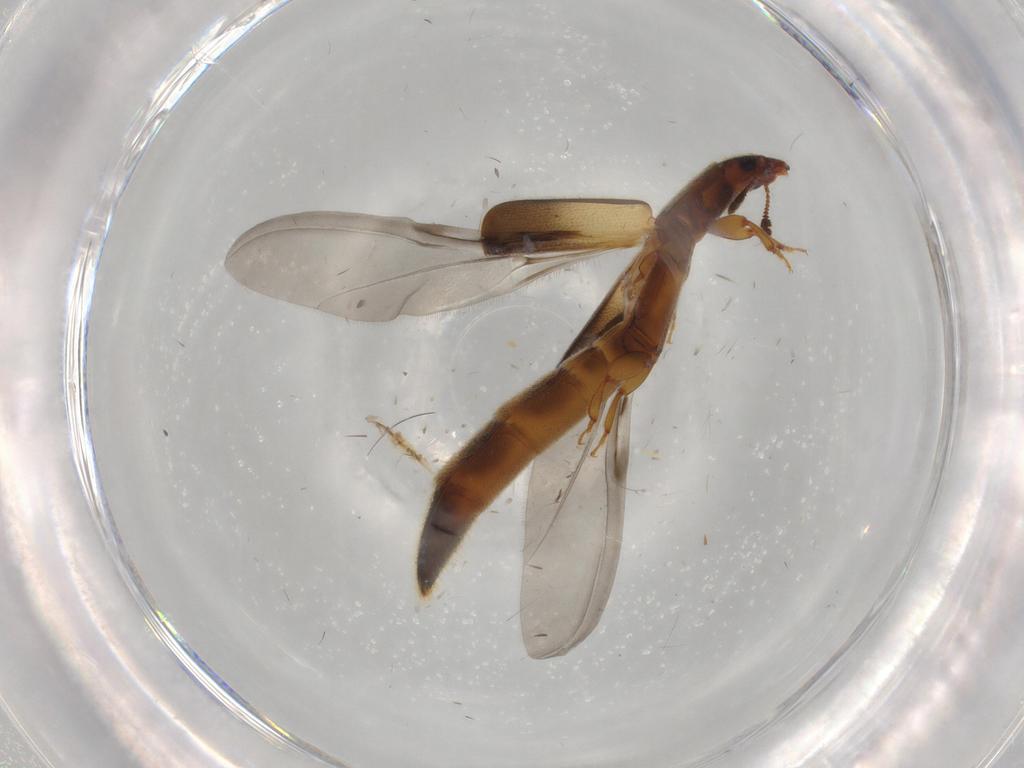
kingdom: Animalia
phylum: Arthropoda
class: Insecta
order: Coleoptera
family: Nitidulidae
